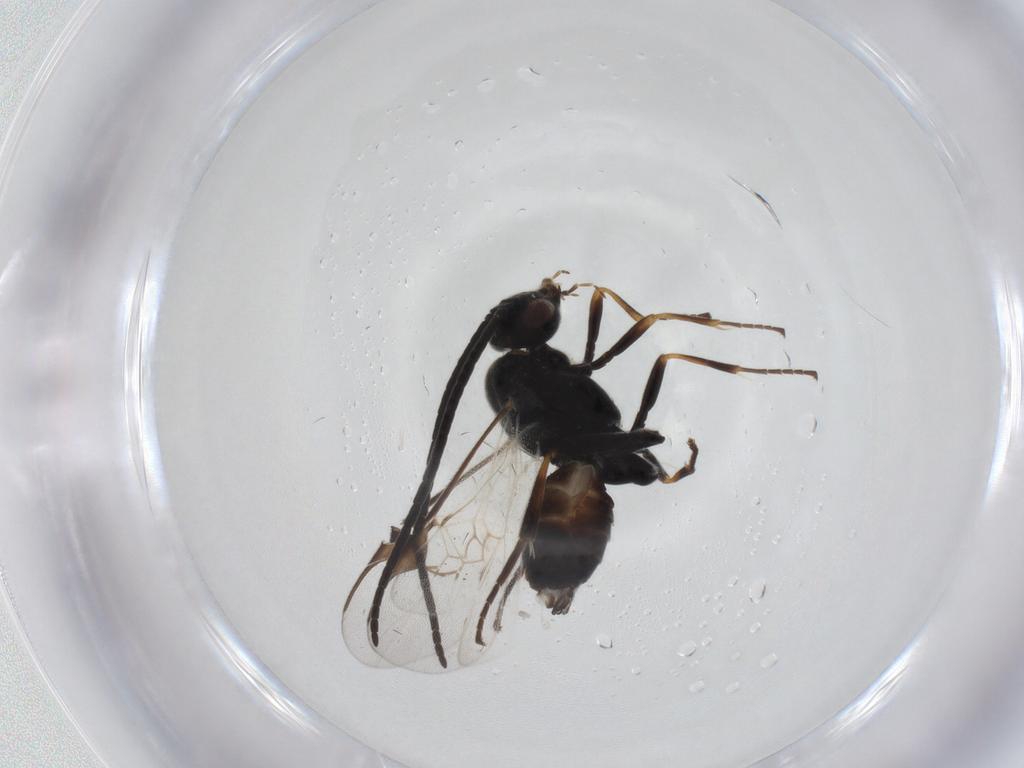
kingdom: Animalia
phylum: Arthropoda
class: Insecta
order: Hymenoptera
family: Braconidae
